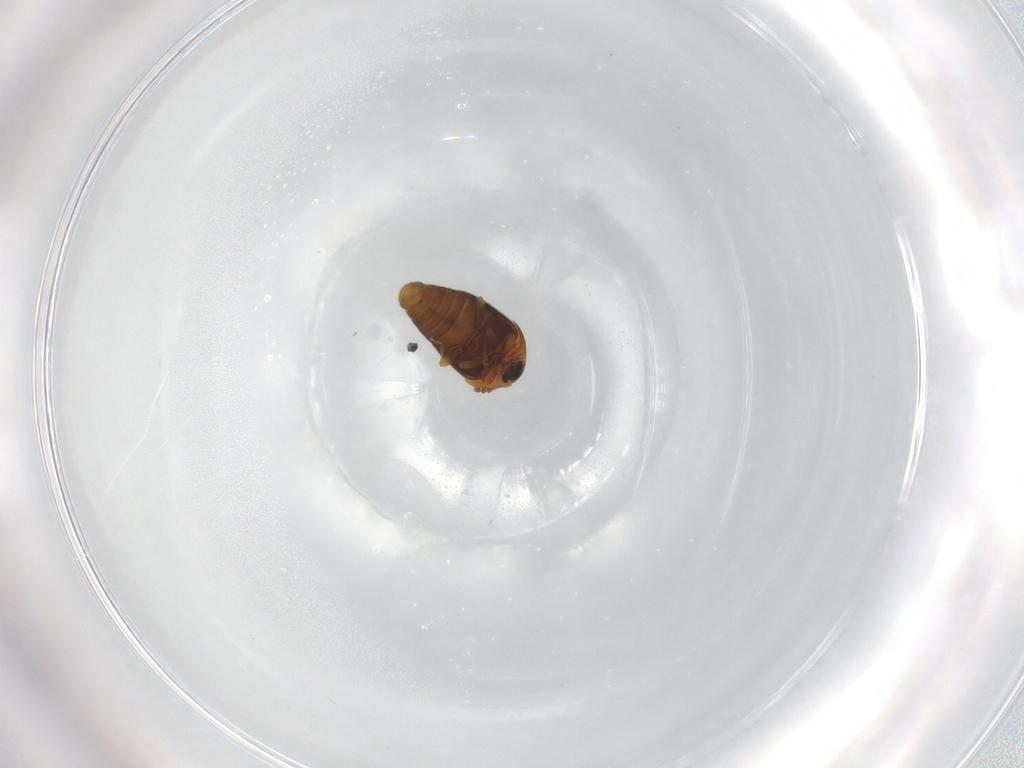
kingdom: Animalia
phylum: Arthropoda
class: Insecta
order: Coleoptera
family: Corylophidae
